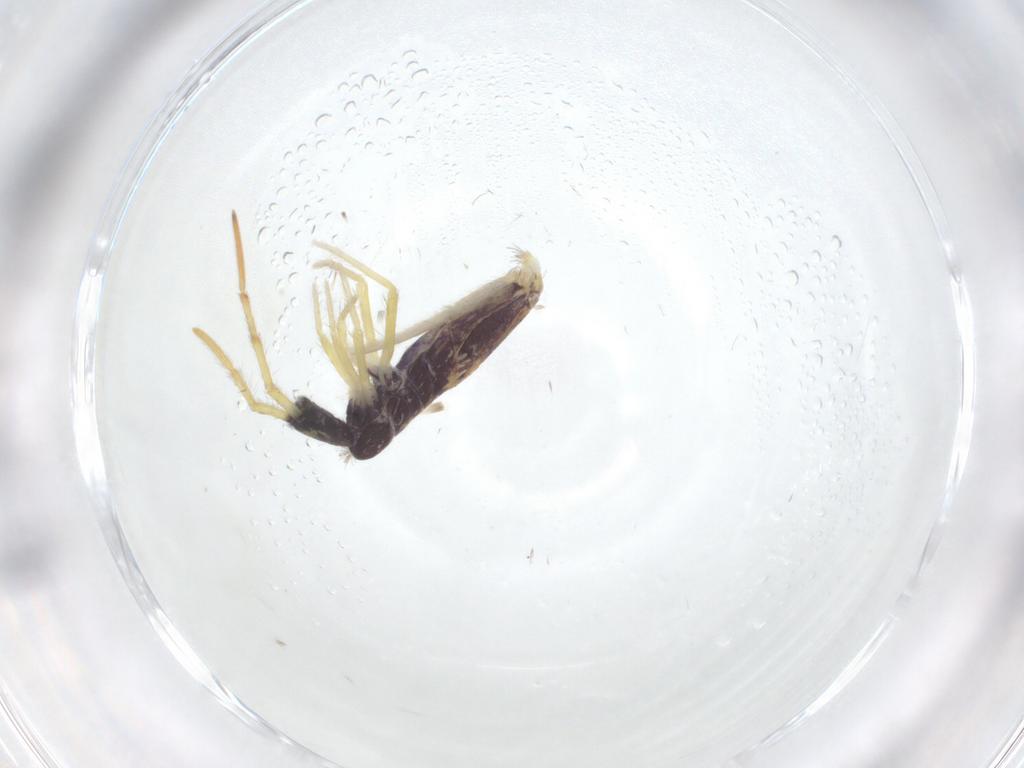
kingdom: Animalia
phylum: Arthropoda
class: Collembola
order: Entomobryomorpha
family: Entomobryidae
